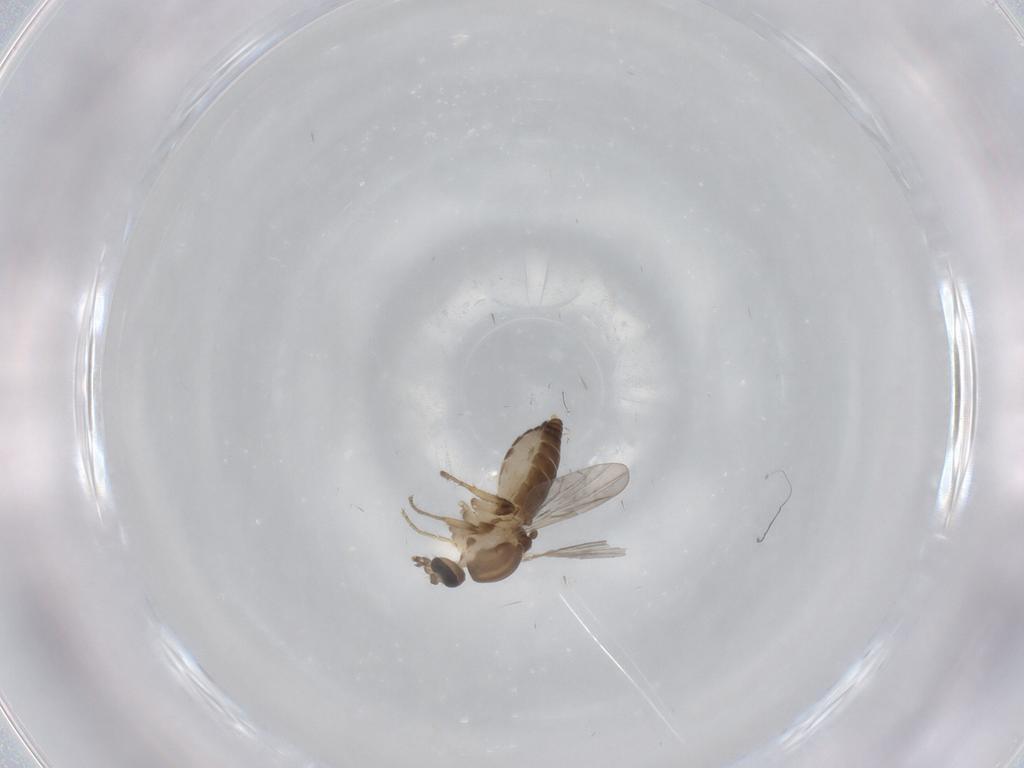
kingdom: Animalia
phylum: Arthropoda
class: Insecta
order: Diptera
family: Ceratopogonidae
